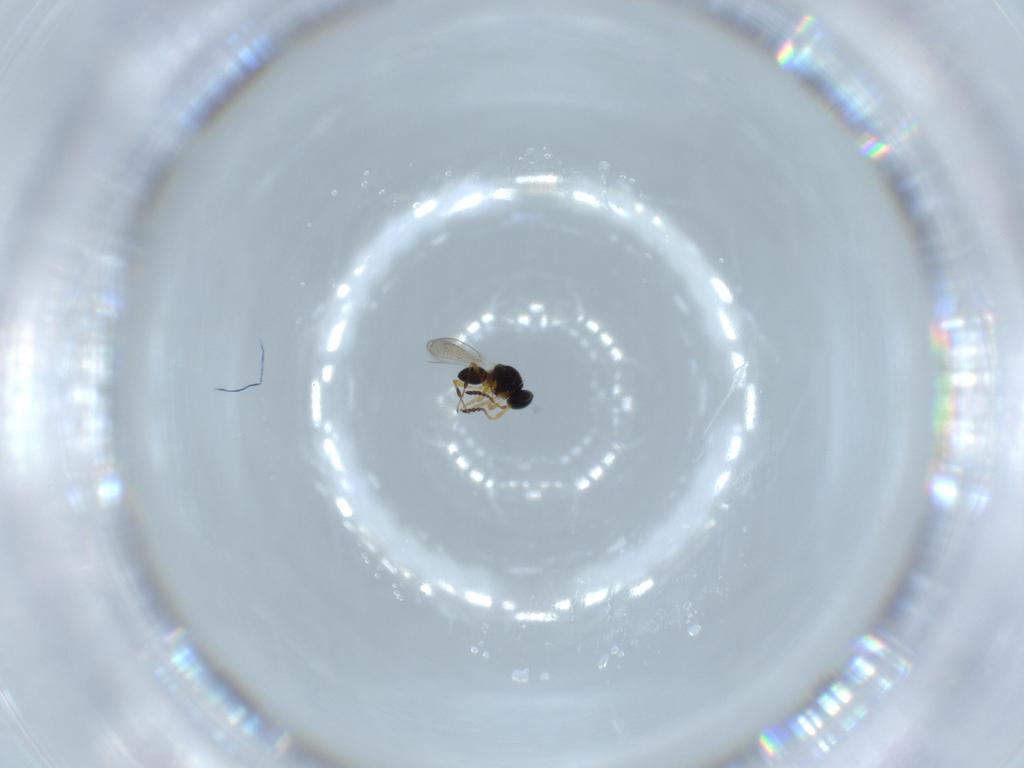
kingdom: Animalia
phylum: Arthropoda
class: Insecta
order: Hymenoptera
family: Platygastridae
